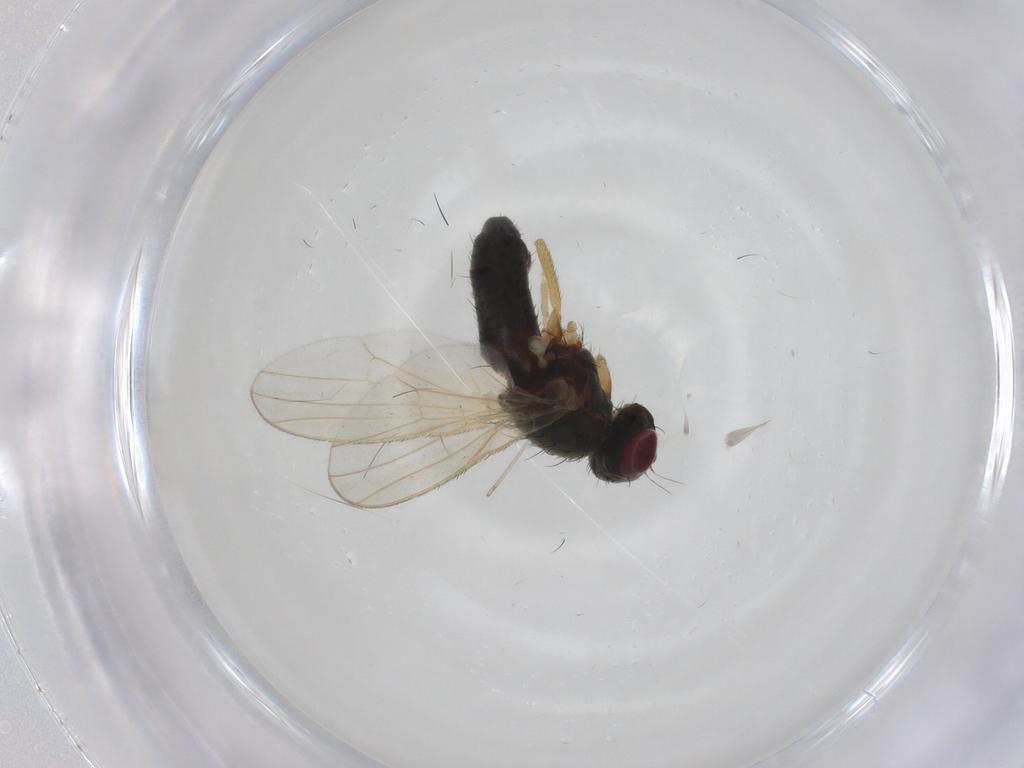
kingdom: Animalia
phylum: Arthropoda
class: Insecta
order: Diptera
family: Heleomyzidae
